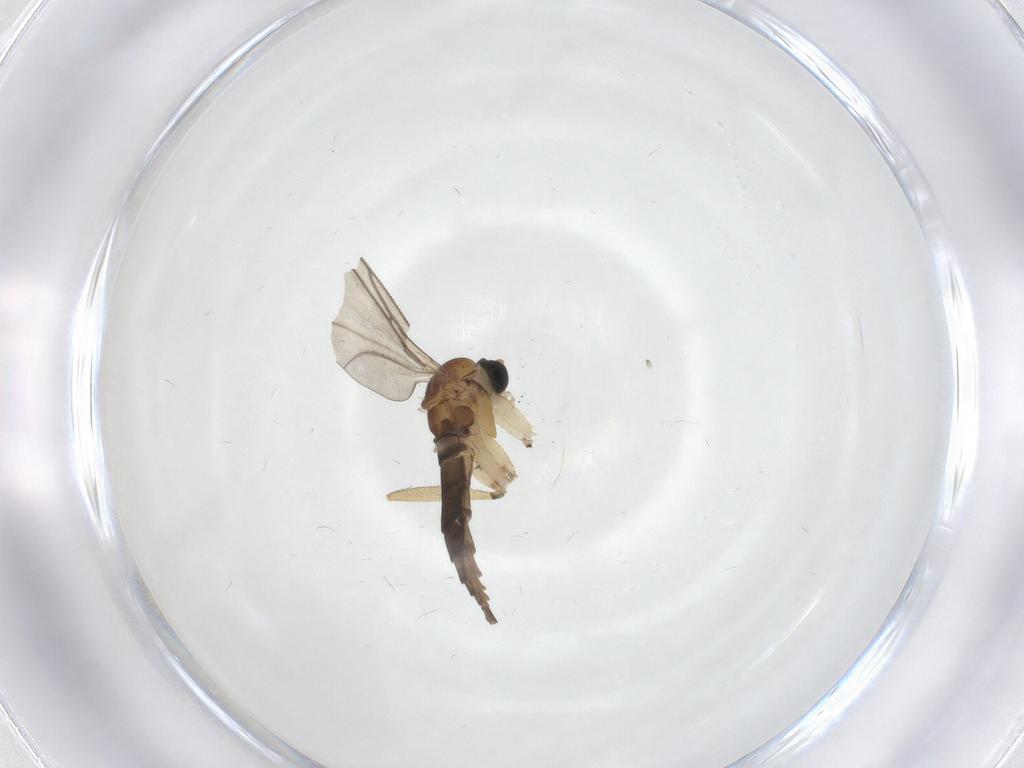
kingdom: Animalia
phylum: Arthropoda
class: Insecta
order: Diptera
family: Sciaridae
